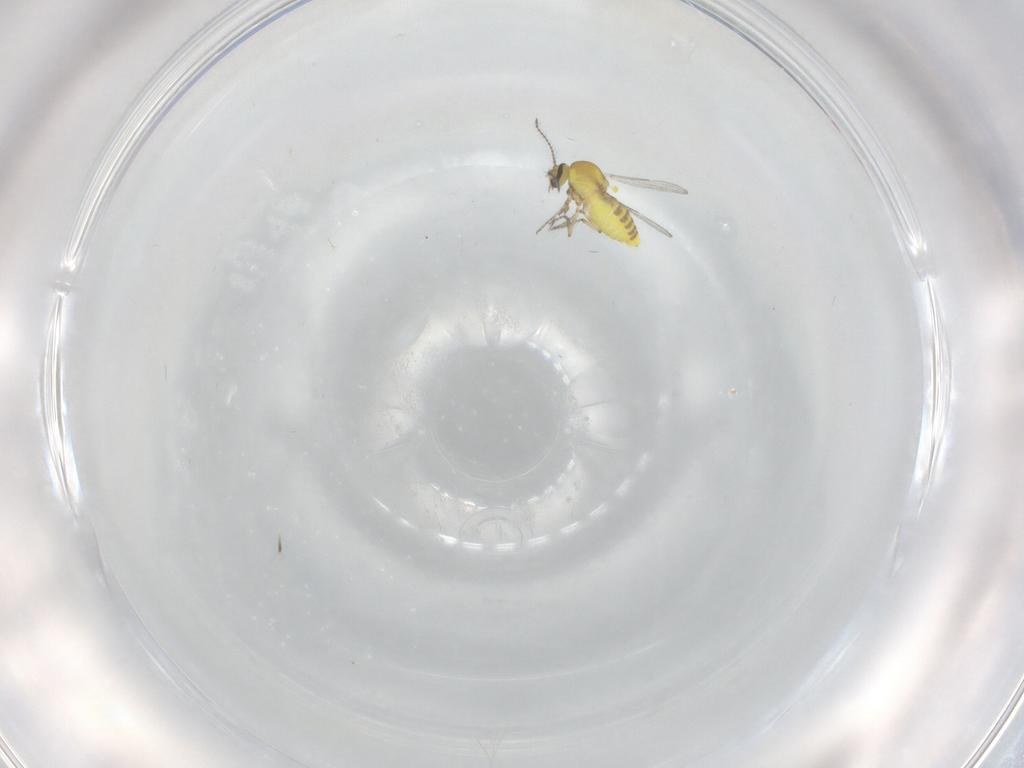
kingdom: Animalia
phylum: Arthropoda
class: Insecta
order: Diptera
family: Ceratopogonidae
